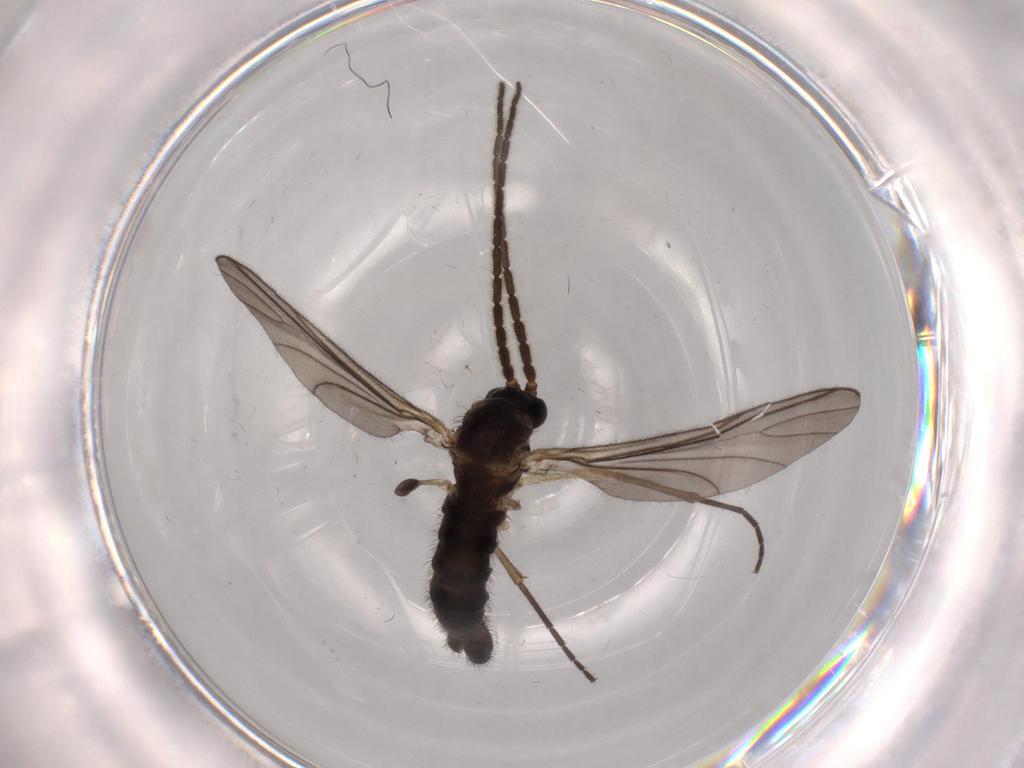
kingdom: Animalia
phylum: Arthropoda
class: Insecta
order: Diptera
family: Sciaridae
